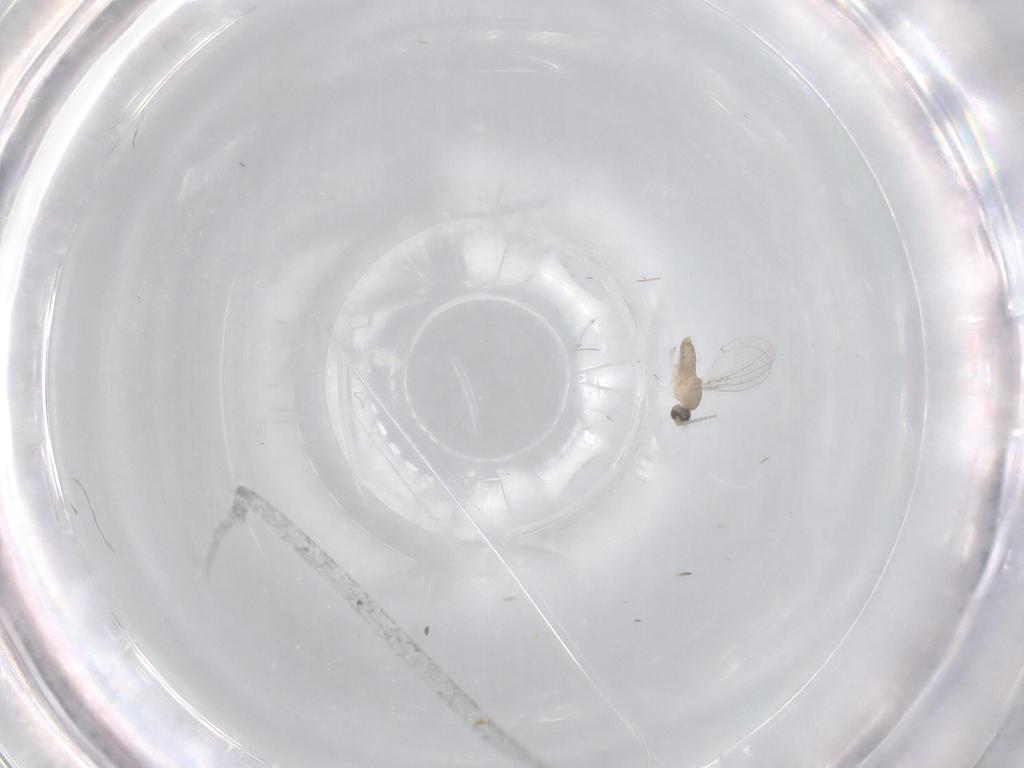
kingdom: Animalia
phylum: Arthropoda
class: Insecta
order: Diptera
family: Cecidomyiidae
